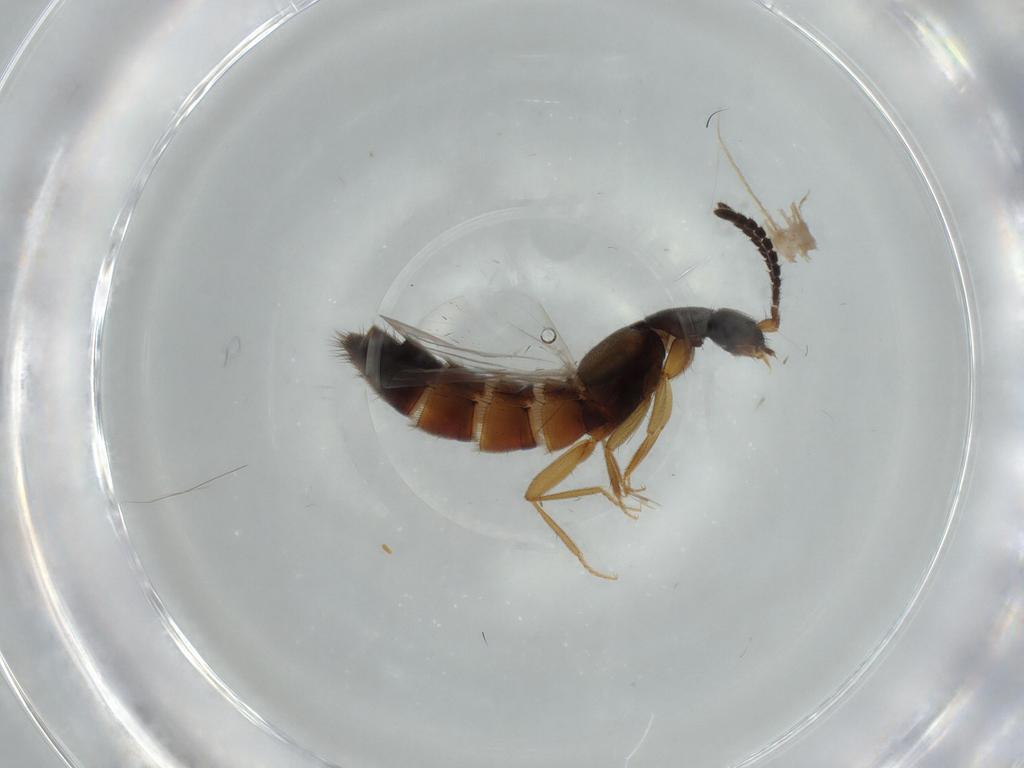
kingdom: Animalia
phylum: Arthropoda
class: Insecta
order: Coleoptera
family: Staphylinidae
